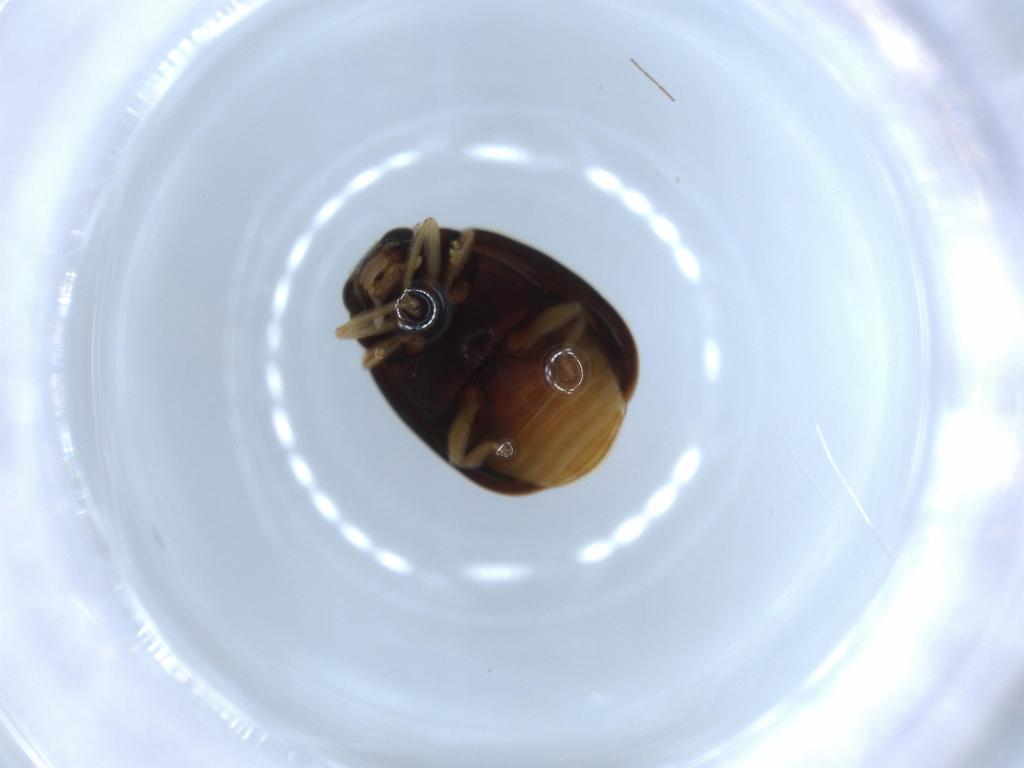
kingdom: Animalia
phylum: Arthropoda
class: Insecta
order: Coleoptera
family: Coccinellidae
